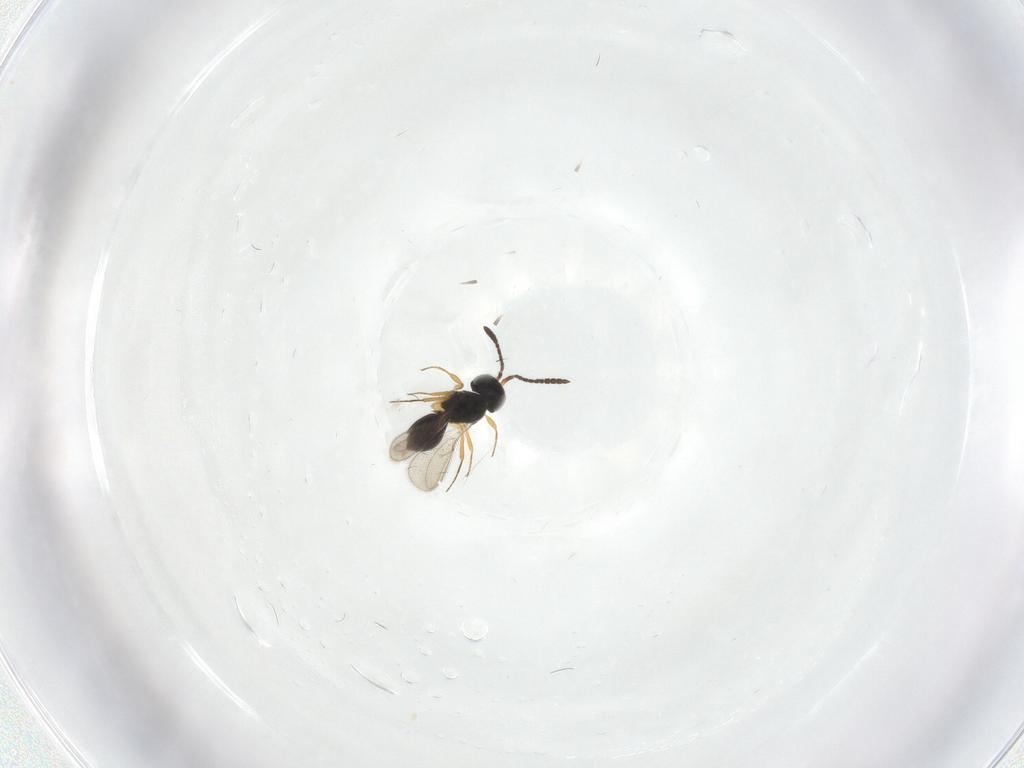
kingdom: Animalia
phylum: Arthropoda
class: Insecta
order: Hymenoptera
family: Scelionidae
